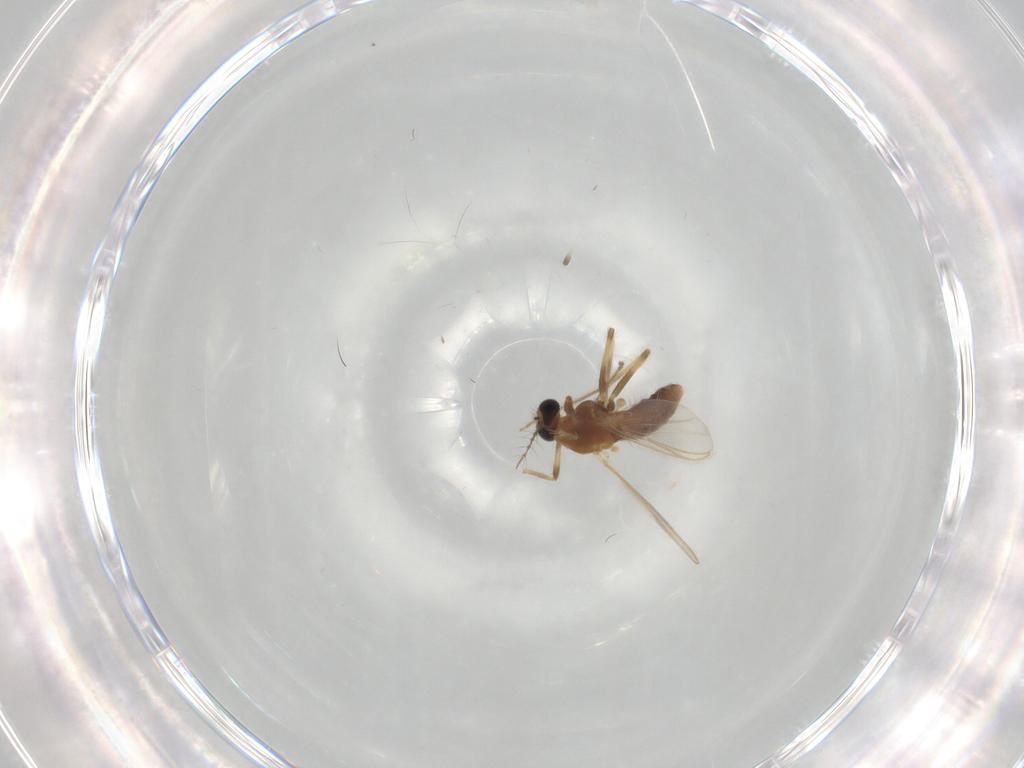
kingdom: Animalia
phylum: Arthropoda
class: Insecta
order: Diptera
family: Chironomidae
